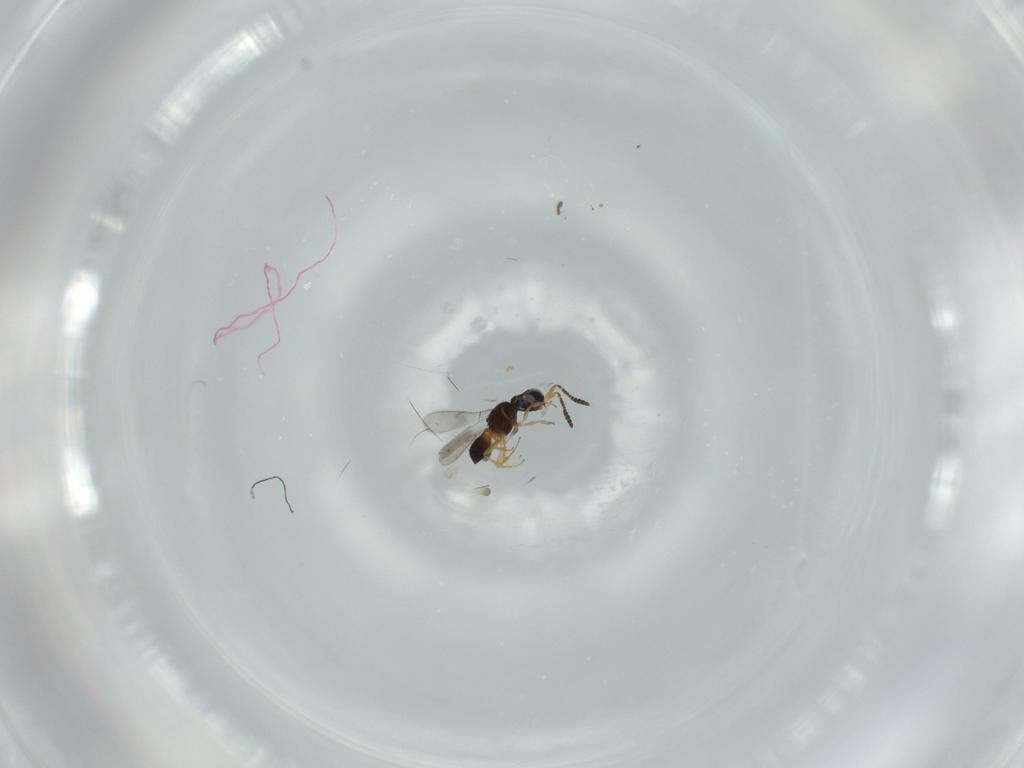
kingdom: Animalia
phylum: Arthropoda
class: Insecta
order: Hymenoptera
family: Scelionidae
